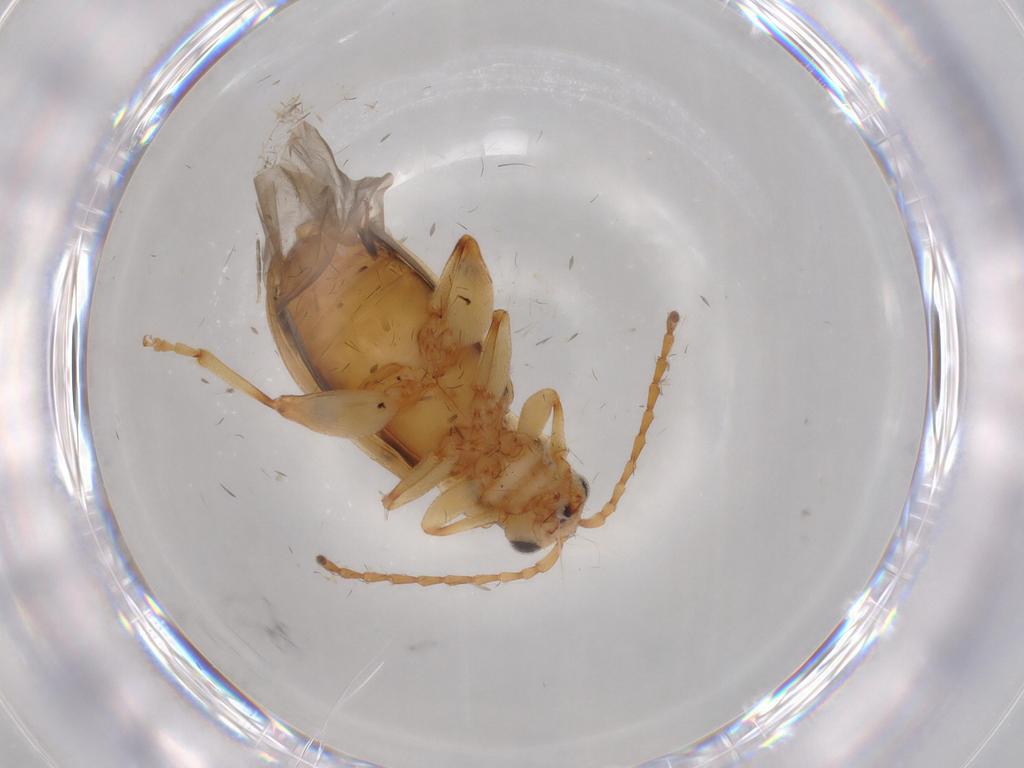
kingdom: Animalia
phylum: Arthropoda
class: Insecta
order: Coleoptera
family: Chrysomelidae
